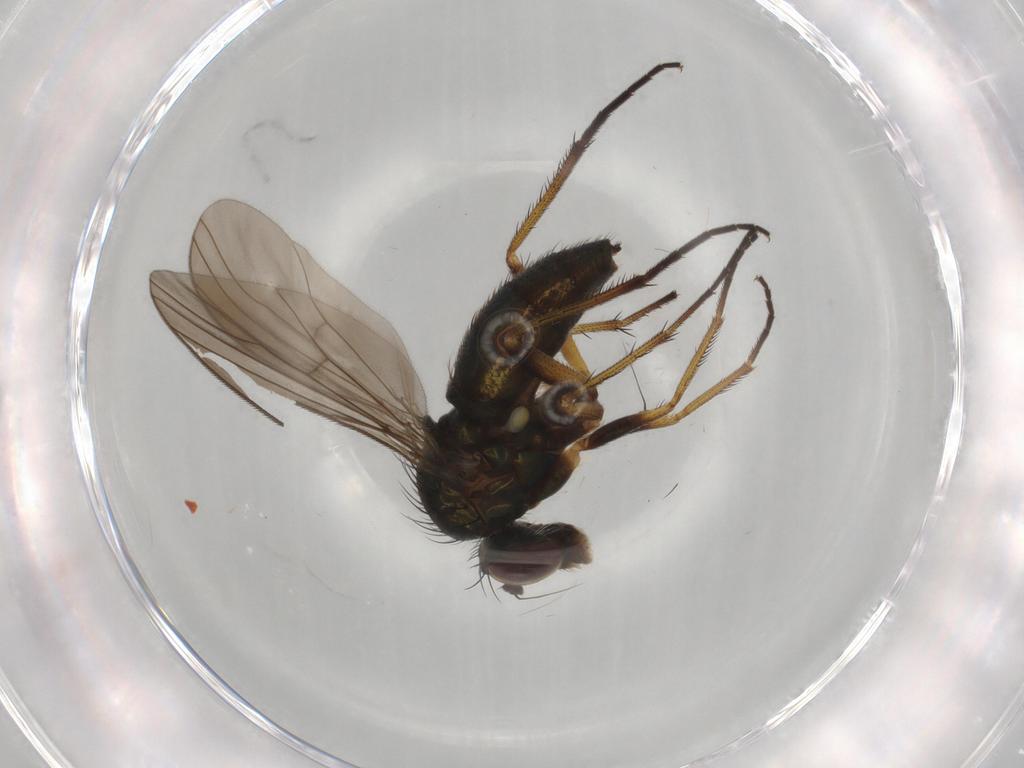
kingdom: Animalia
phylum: Arthropoda
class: Insecta
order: Diptera
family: Dolichopodidae
